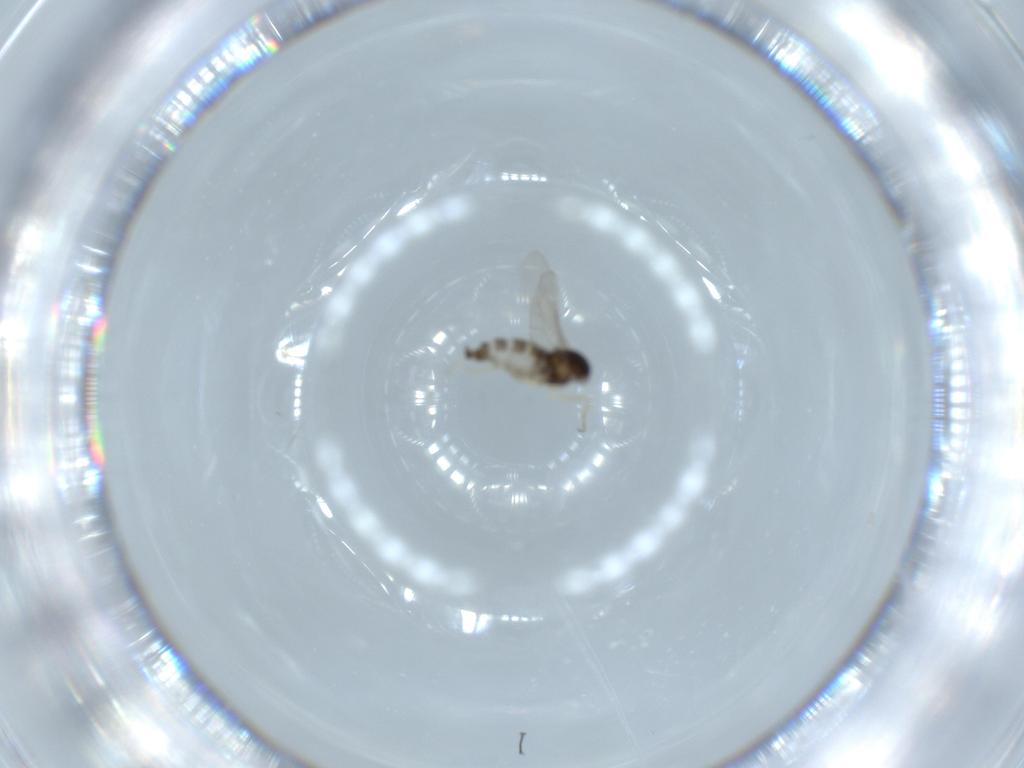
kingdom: Animalia
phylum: Arthropoda
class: Insecta
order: Diptera
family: Cecidomyiidae
